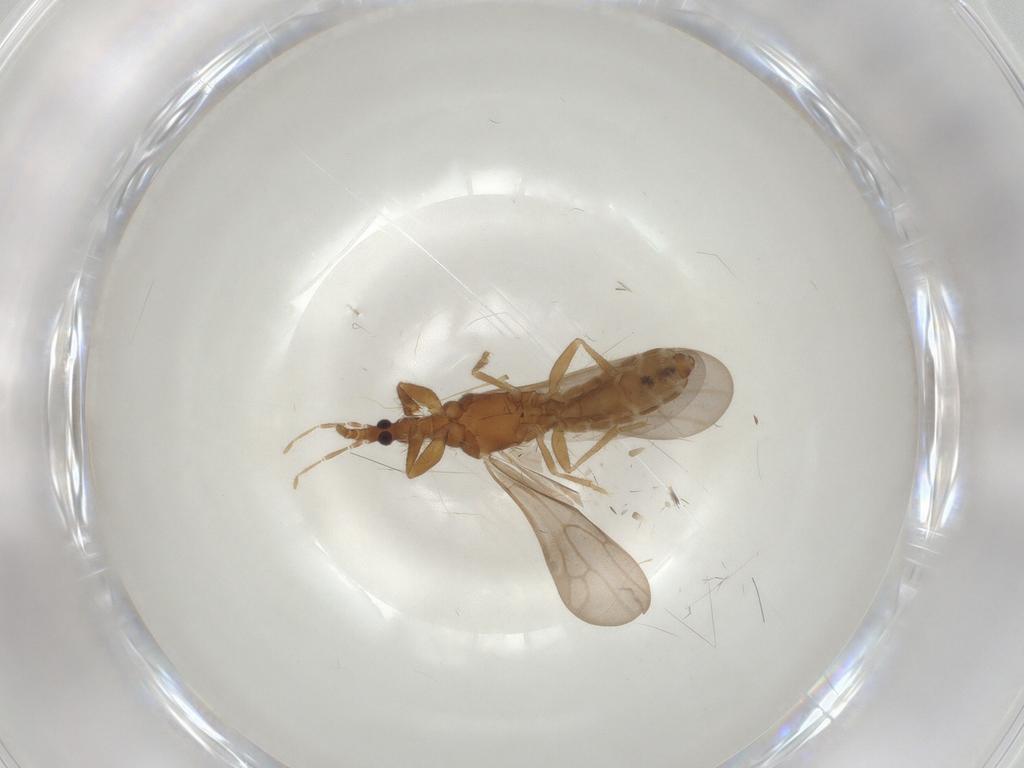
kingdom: Animalia
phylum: Arthropoda
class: Insecta
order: Hemiptera
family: Enicocephalidae
